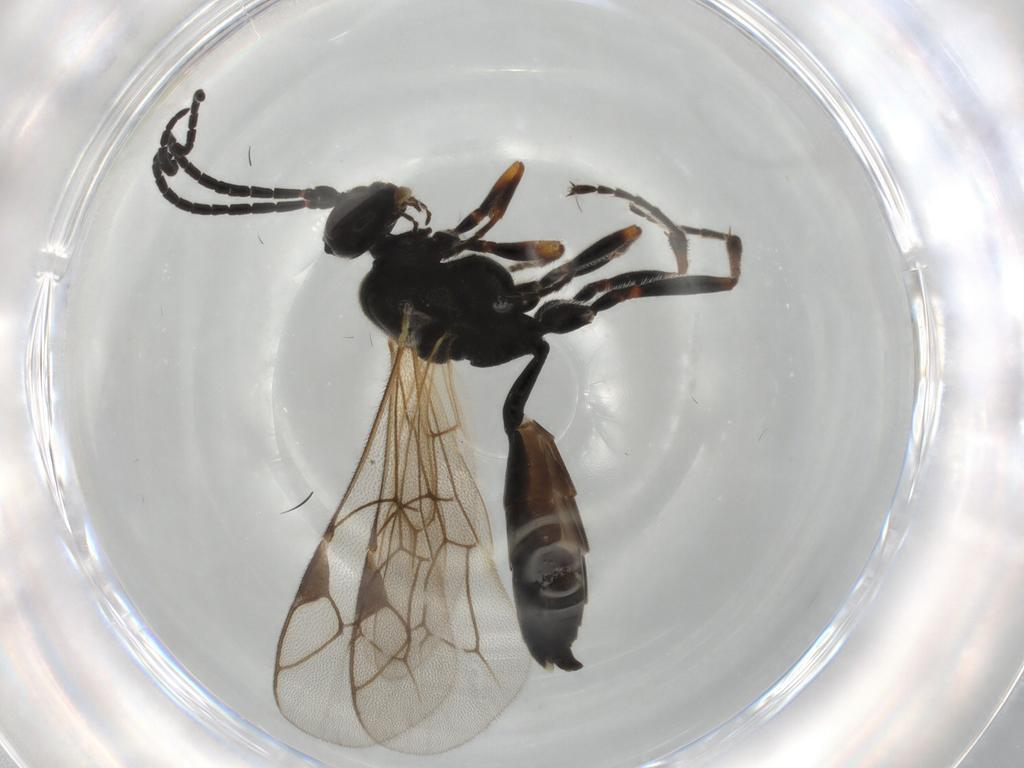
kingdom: Animalia
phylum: Arthropoda
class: Insecta
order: Hymenoptera
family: Ichneumonidae
